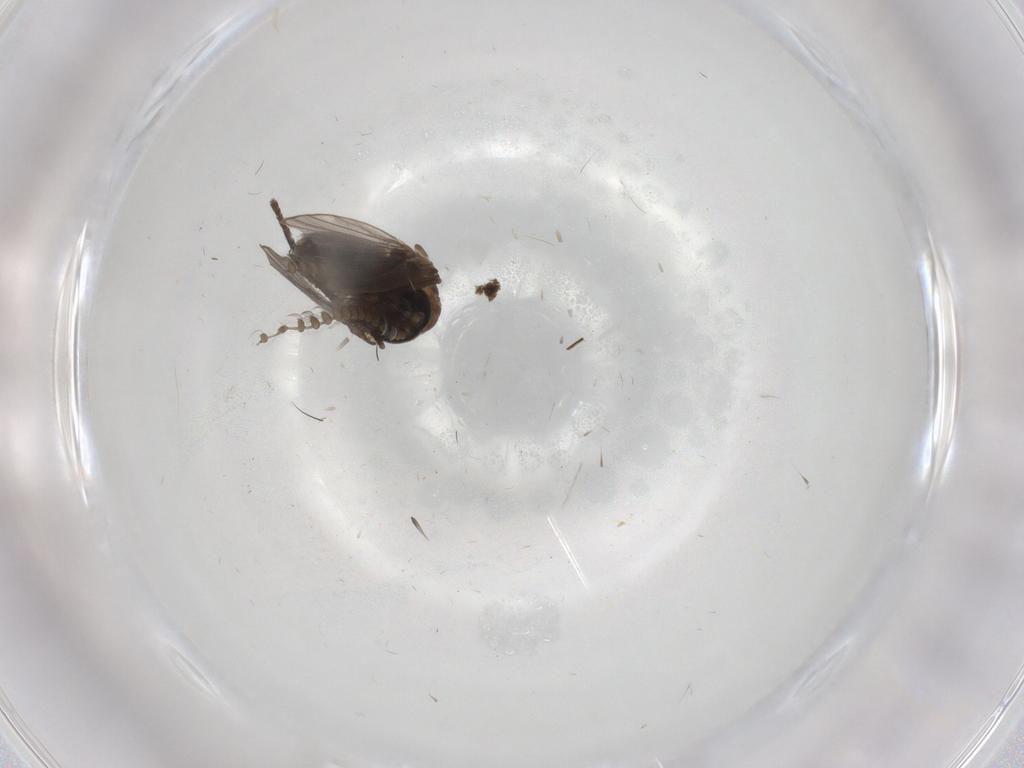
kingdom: Animalia
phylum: Arthropoda
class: Insecta
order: Diptera
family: Psychodidae
